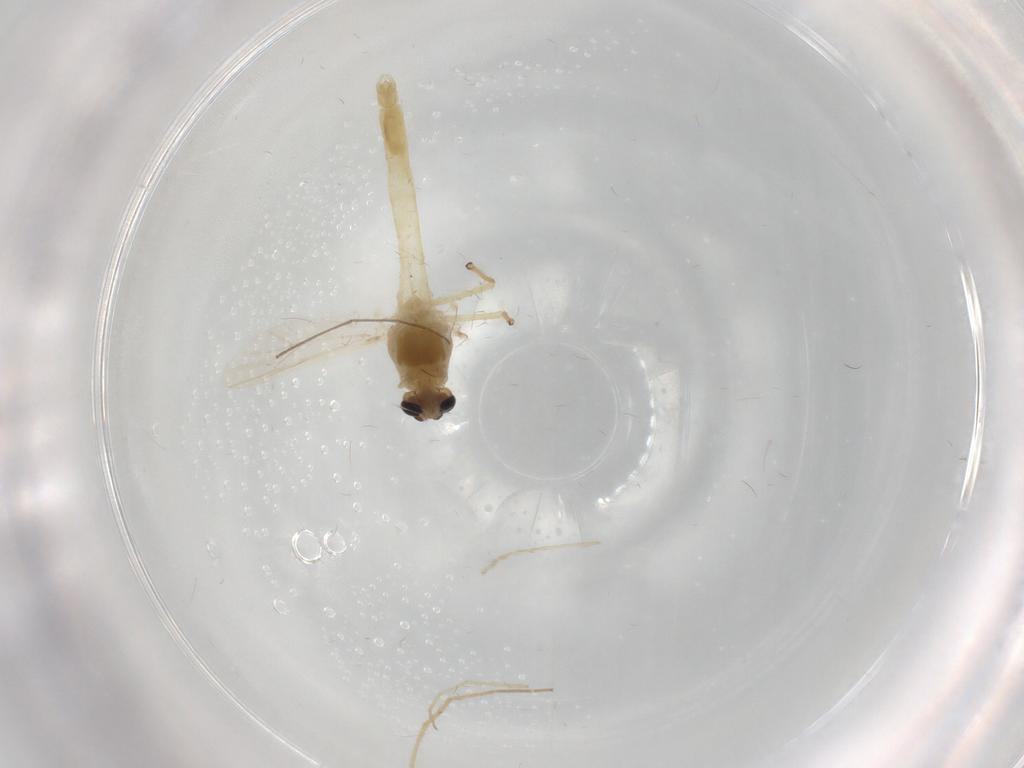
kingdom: Animalia
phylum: Arthropoda
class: Insecta
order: Diptera
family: Chironomidae
